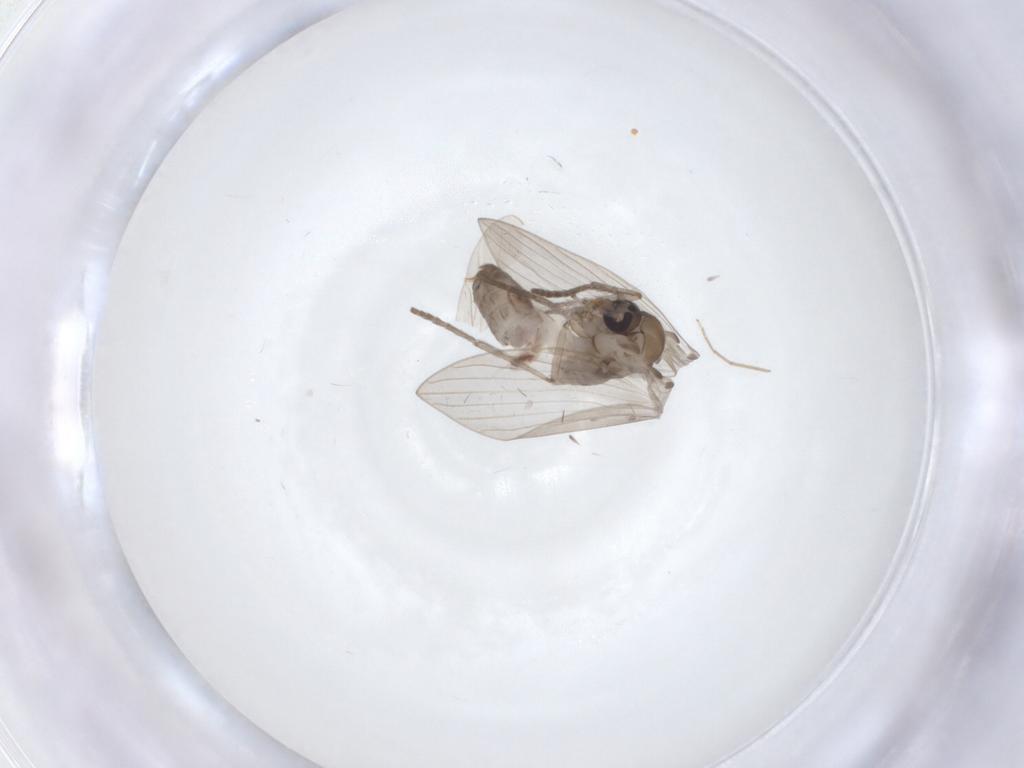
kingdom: Animalia
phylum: Arthropoda
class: Insecta
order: Diptera
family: Psychodidae
